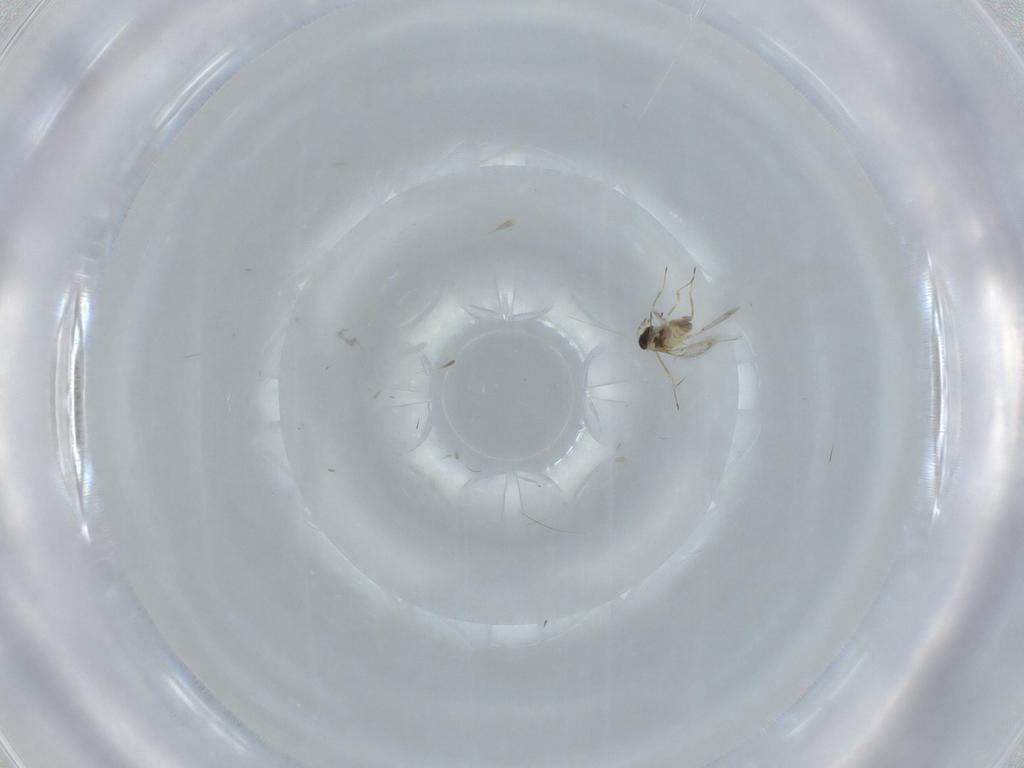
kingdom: Animalia
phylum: Arthropoda
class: Insecta
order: Hymenoptera
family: Trichogrammatidae
